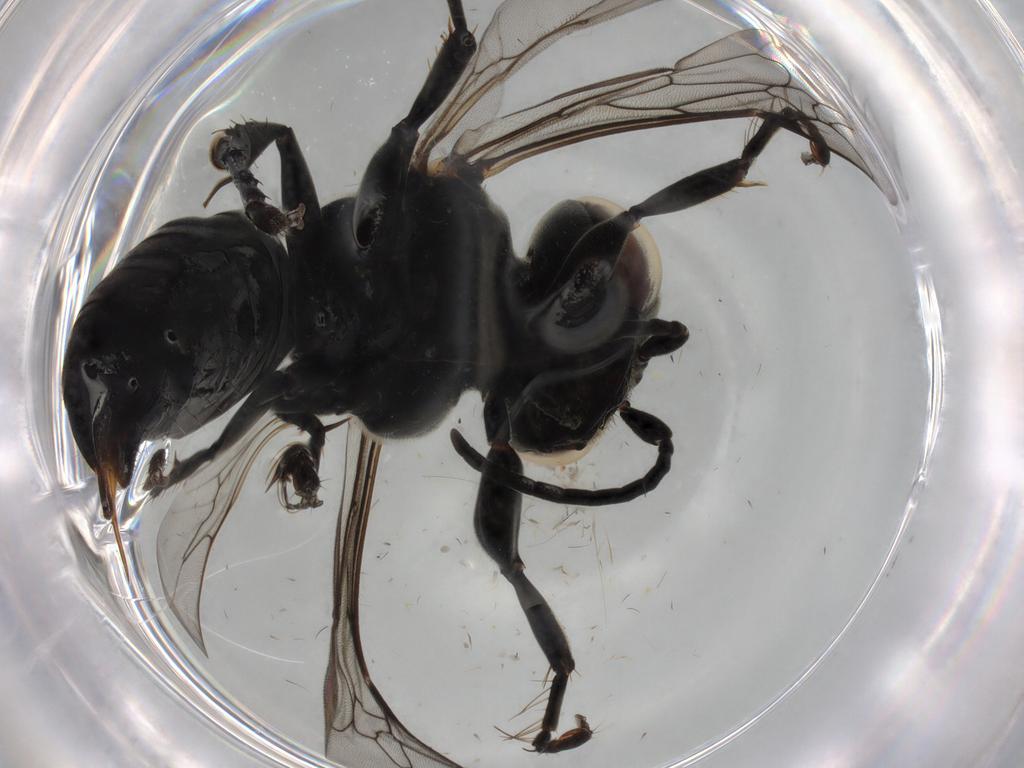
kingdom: Animalia
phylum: Arthropoda
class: Insecta
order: Hymenoptera
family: Crabronidae
